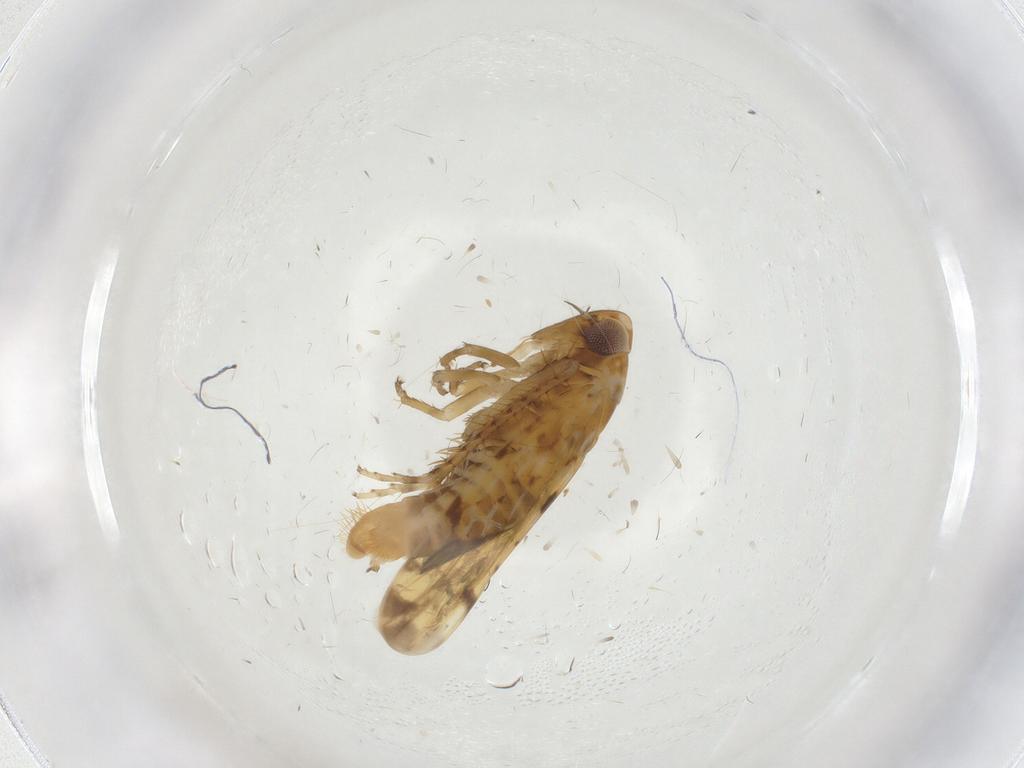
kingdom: Animalia
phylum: Arthropoda
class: Insecta
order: Hemiptera
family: Cicadellidae
